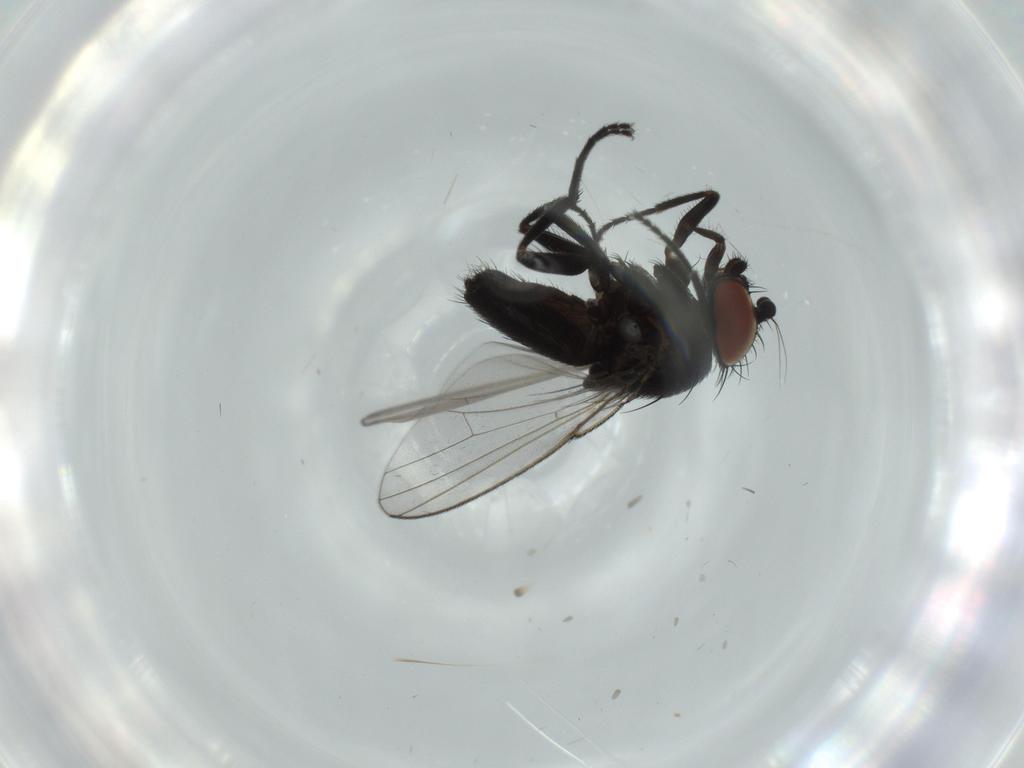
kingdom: Animalia
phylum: Arthropoda
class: Insecta
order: Diptera
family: Milichiidae
